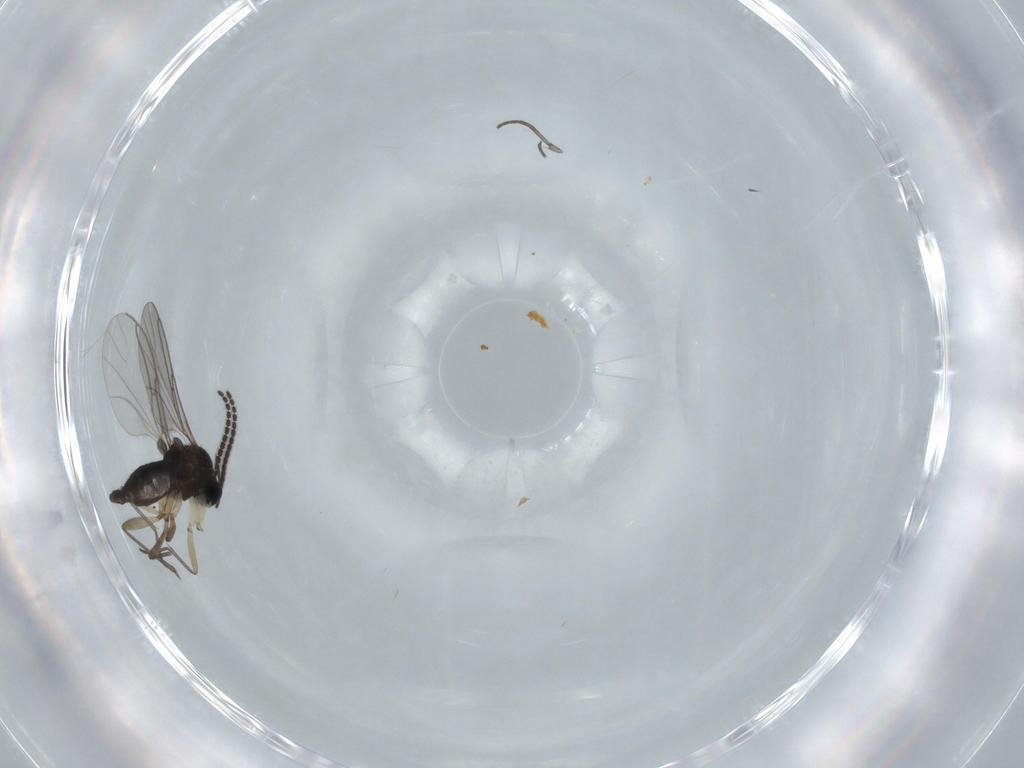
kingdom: Animalia
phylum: Arthropoda
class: Insecta
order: Diptera
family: Sciaridae
